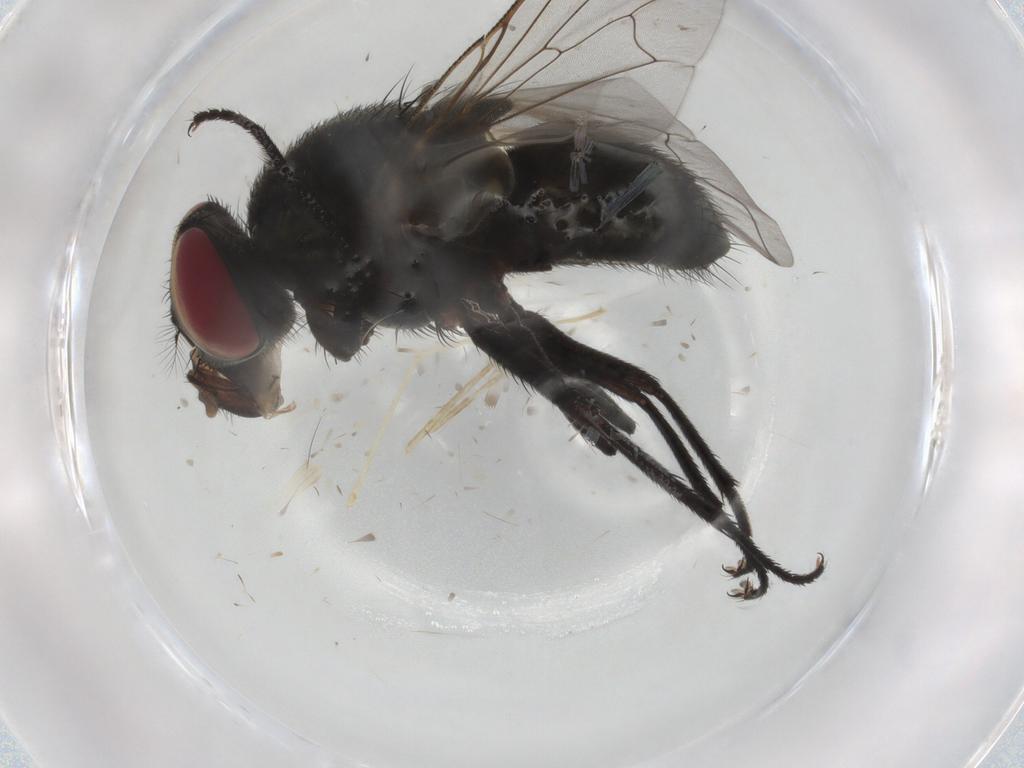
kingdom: Animalia
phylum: Arthropoda
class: Insecta
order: Diptera
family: Muscidae
